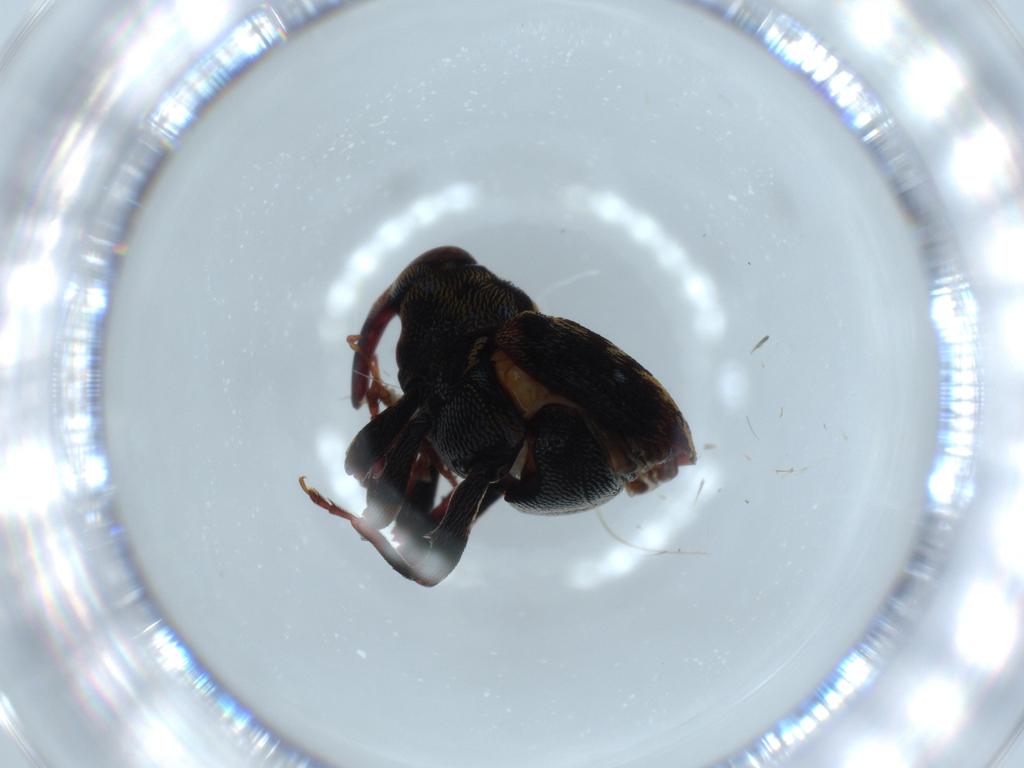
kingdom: Animalia
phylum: Arthropoda
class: Insecta
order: Coleoptera
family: Curculionidae
